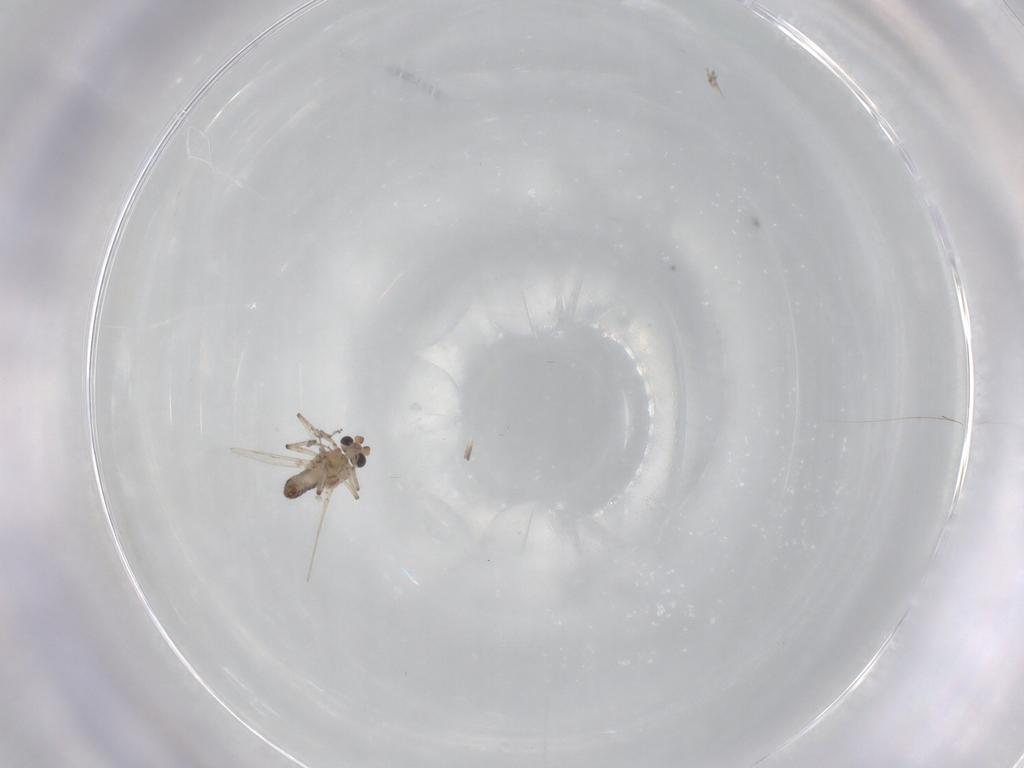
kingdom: Animalia
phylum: Arthropoda
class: Insecta
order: Diptera
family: Ceratopogonidae
